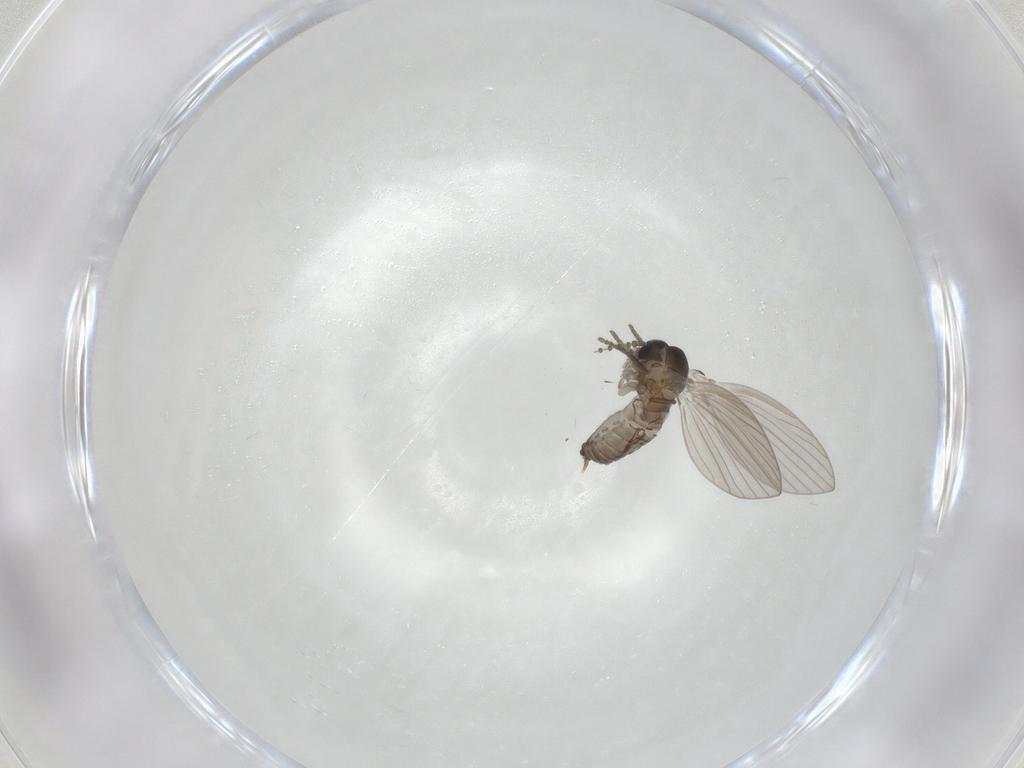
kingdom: Animalia
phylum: Arthropoda
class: Insecta
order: Diptera
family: Psychodidae
